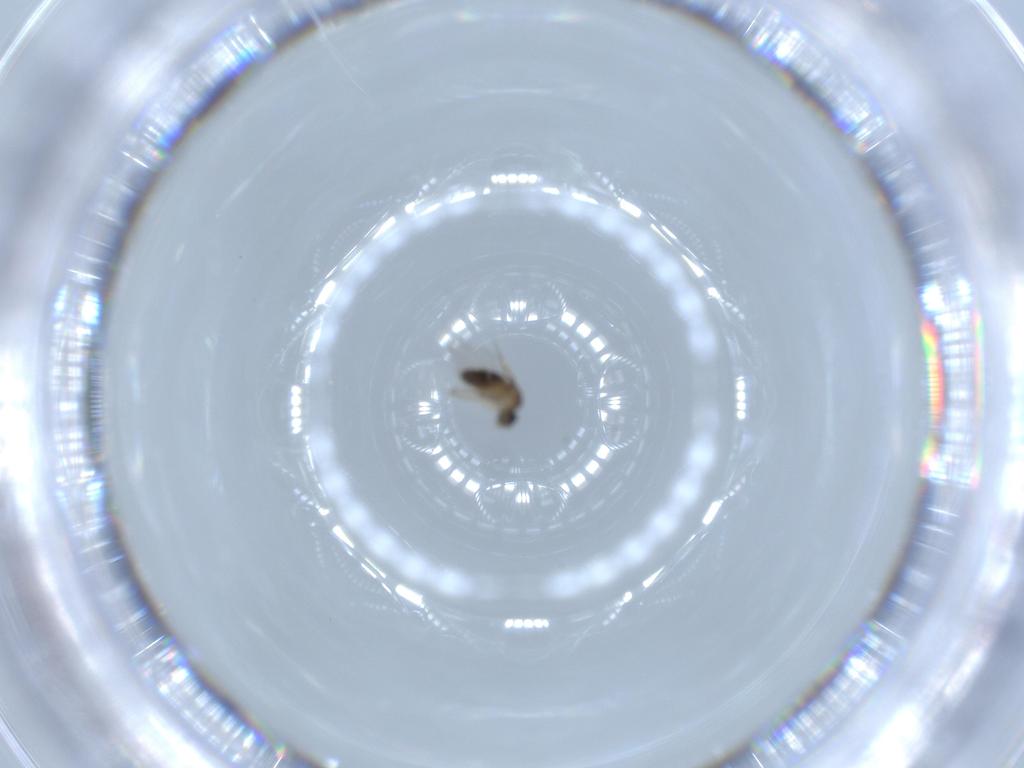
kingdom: Animalia
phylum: Arthropoda
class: Insecta
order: Diptera
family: Phoridae
